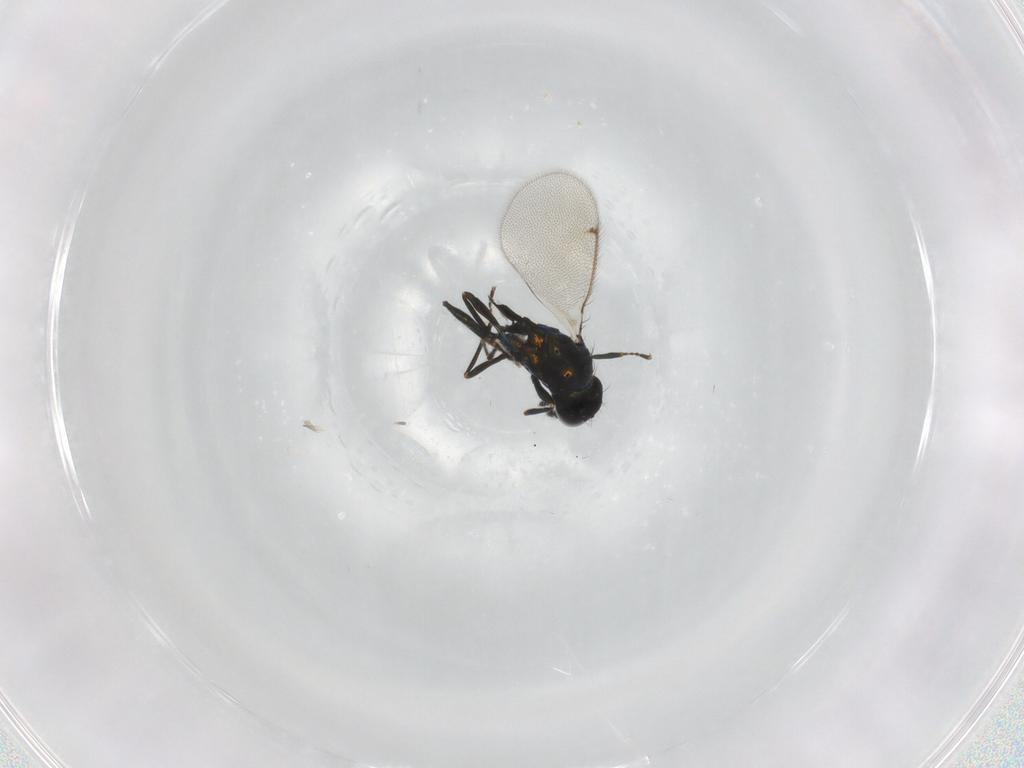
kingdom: Animalia
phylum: Arthropoda
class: Insecta
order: Hymenoptera
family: Eulophidae
